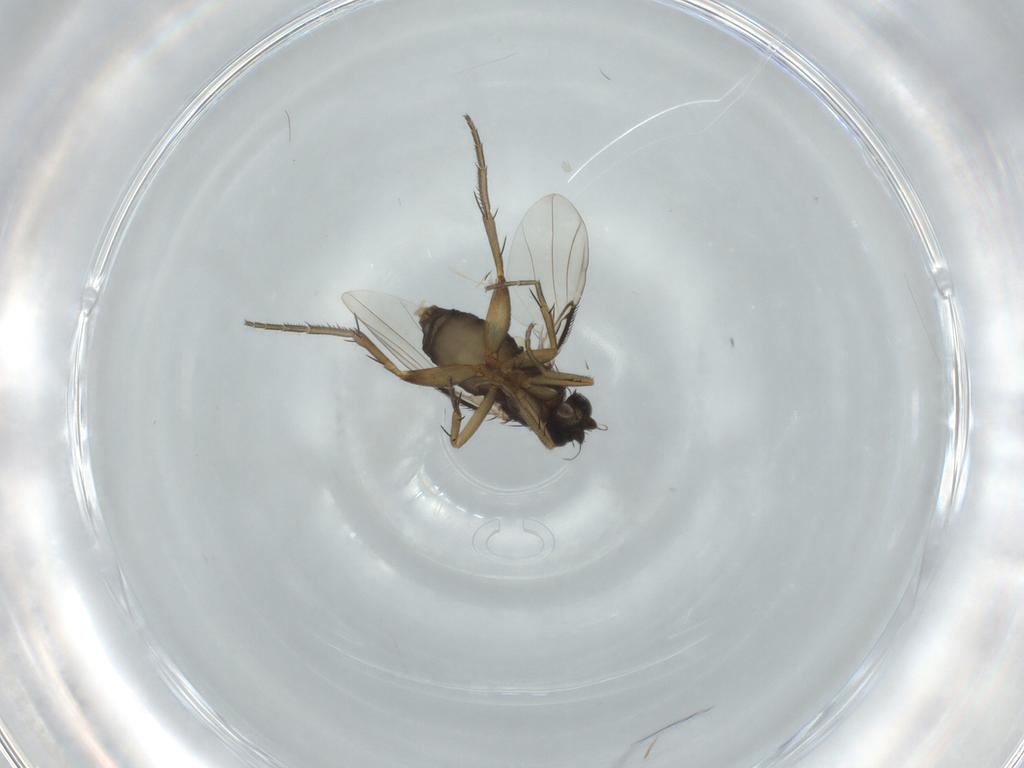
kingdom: Animalia
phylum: Arthropoda
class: Insecta
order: Diptera
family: Phoridae
